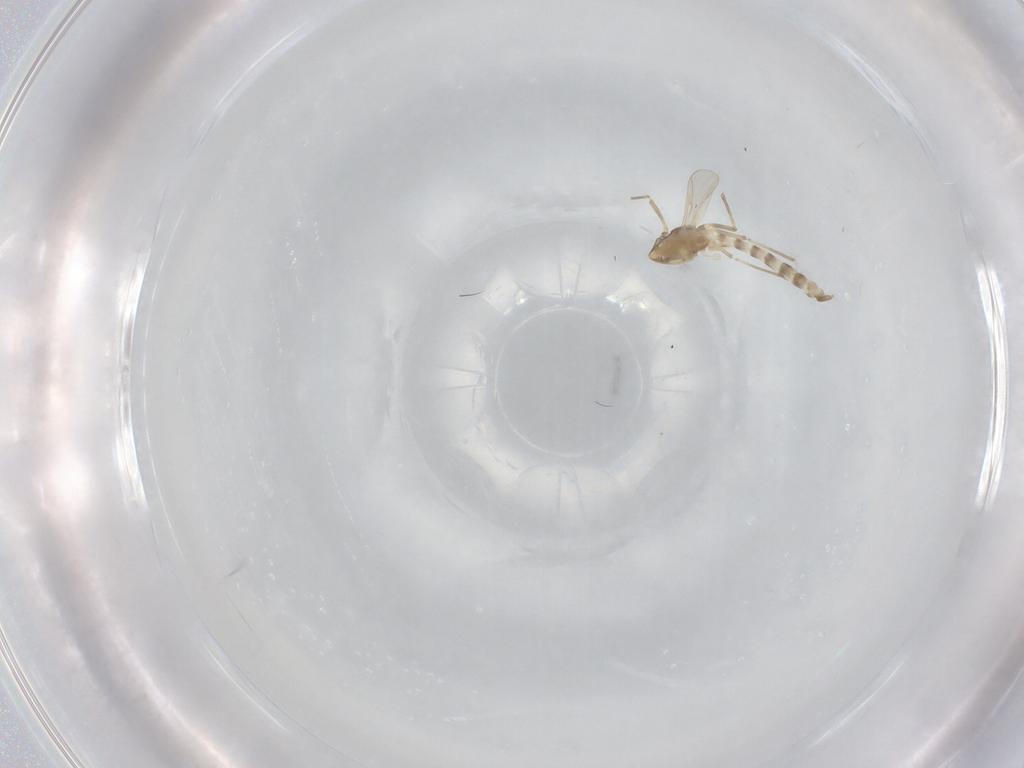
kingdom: Animalia
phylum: Arthropoda
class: Insecta
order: Diptera
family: Chironomidae
